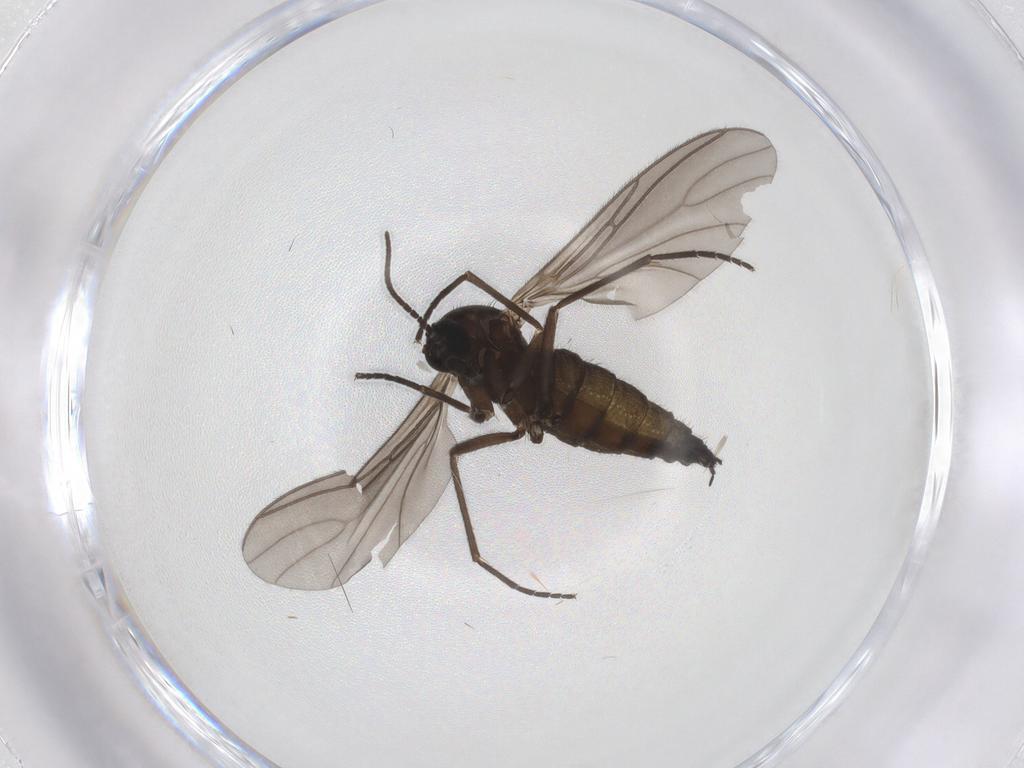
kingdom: Animalia
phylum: Arthropoda
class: Insecta
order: Diptera
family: Sciaridae
